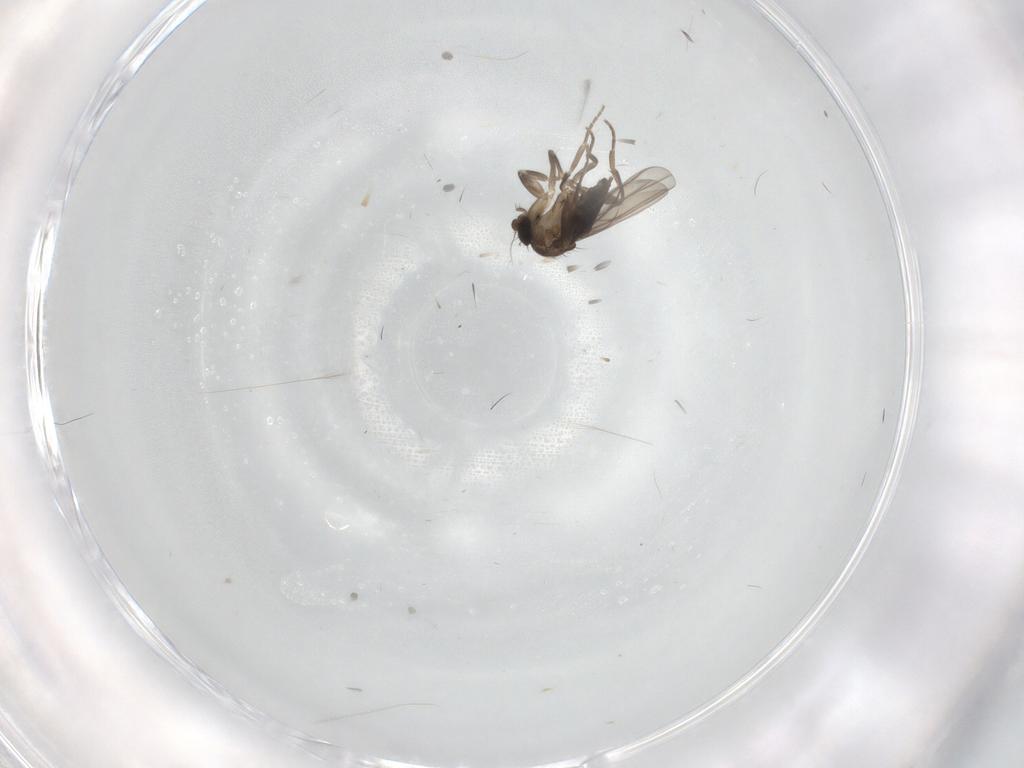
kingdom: Animalia
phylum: Arthropoda
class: Insecta
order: Diptera
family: Phoridae
